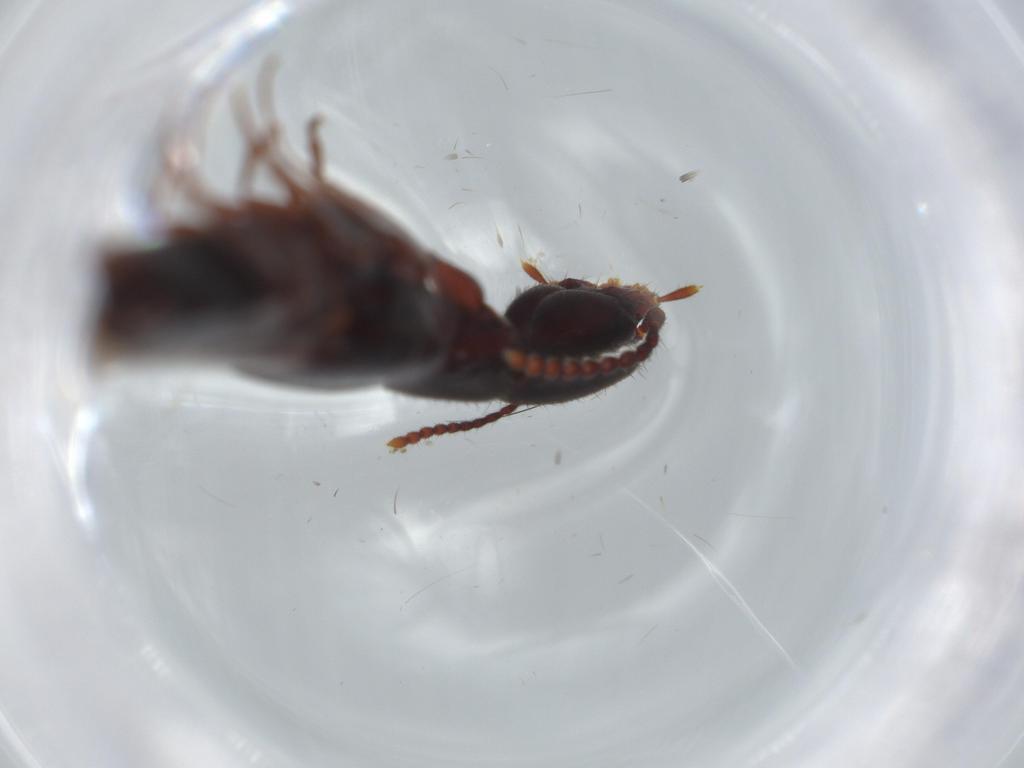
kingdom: Animalia
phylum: Arthropoda
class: Insecta
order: Coleoptera
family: Staphylinidae
